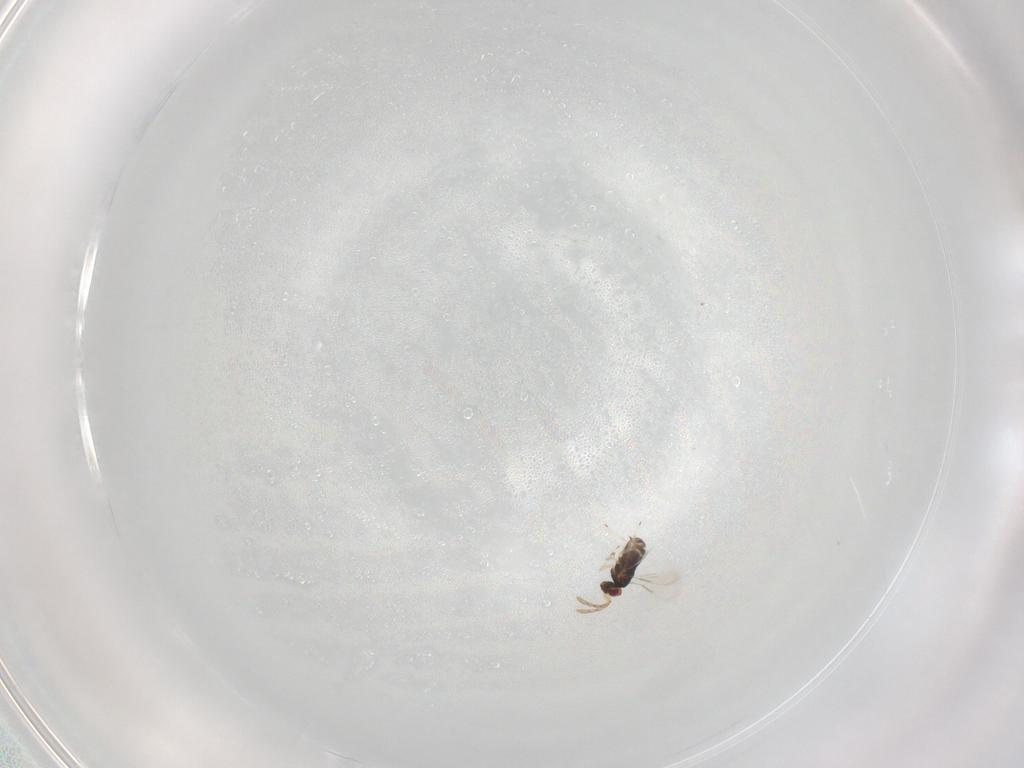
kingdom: Animalia
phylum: Arthropoda
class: Insecta
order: Hymenoptera
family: Scelionidae
